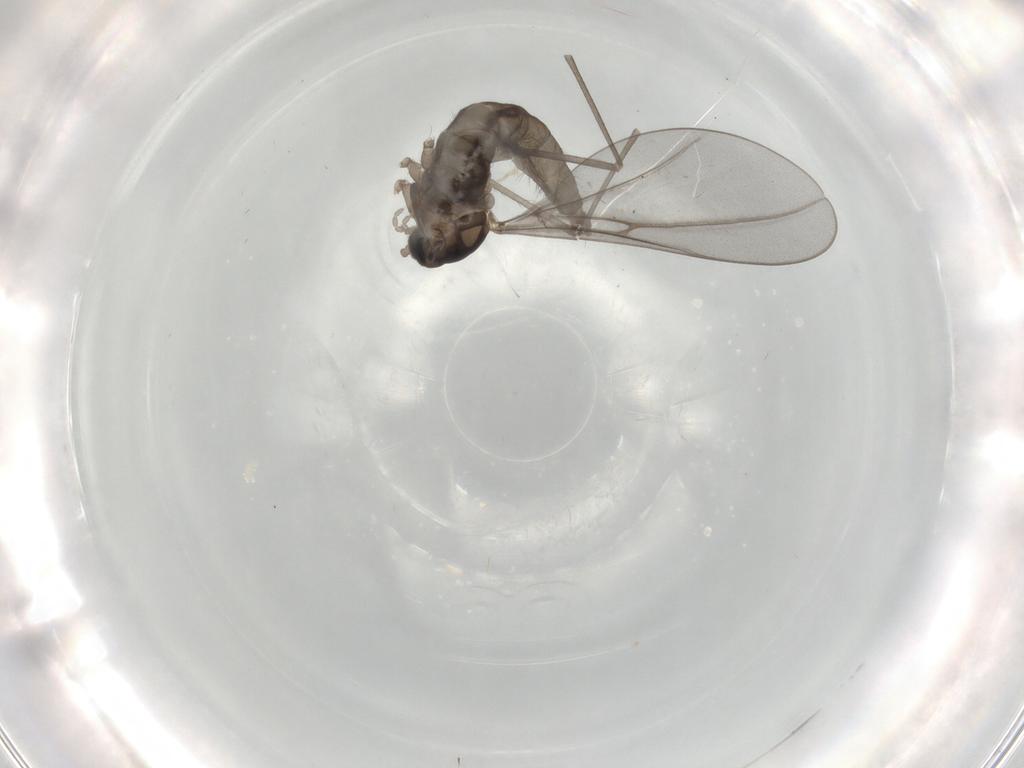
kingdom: Animalia
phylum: Arthropoda
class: Insecta
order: Diptera
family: Cecidomyiidae
